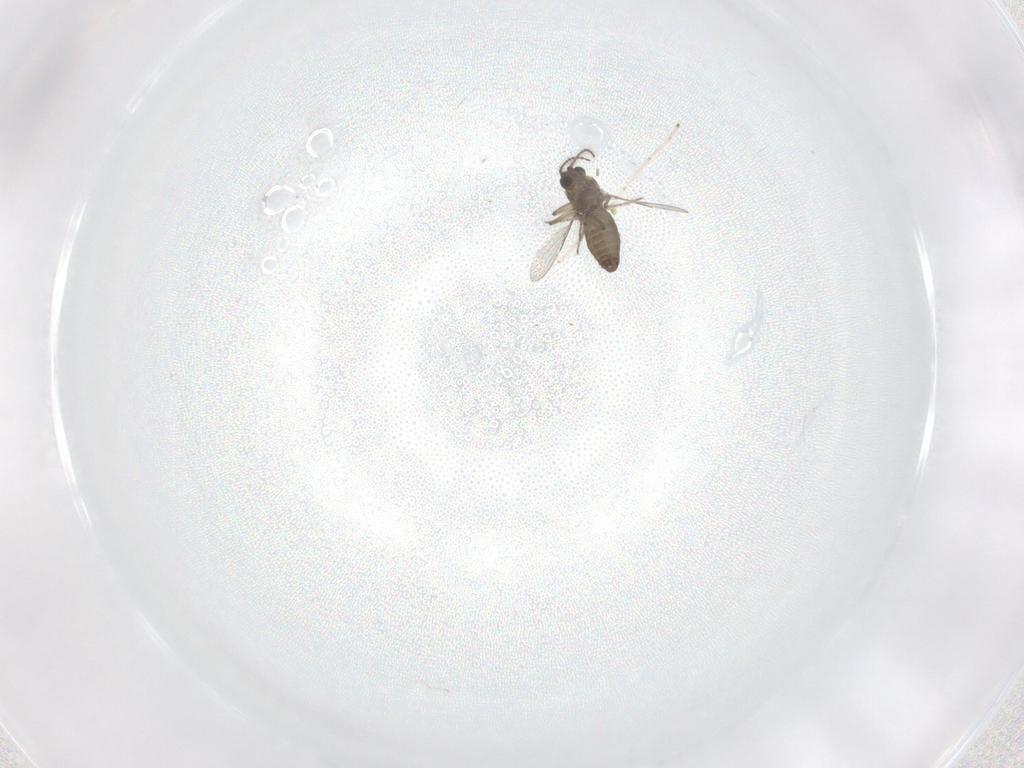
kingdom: Animalia
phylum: Arthropoda
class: Insecta
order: Diptera
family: Ceratopogonidae
